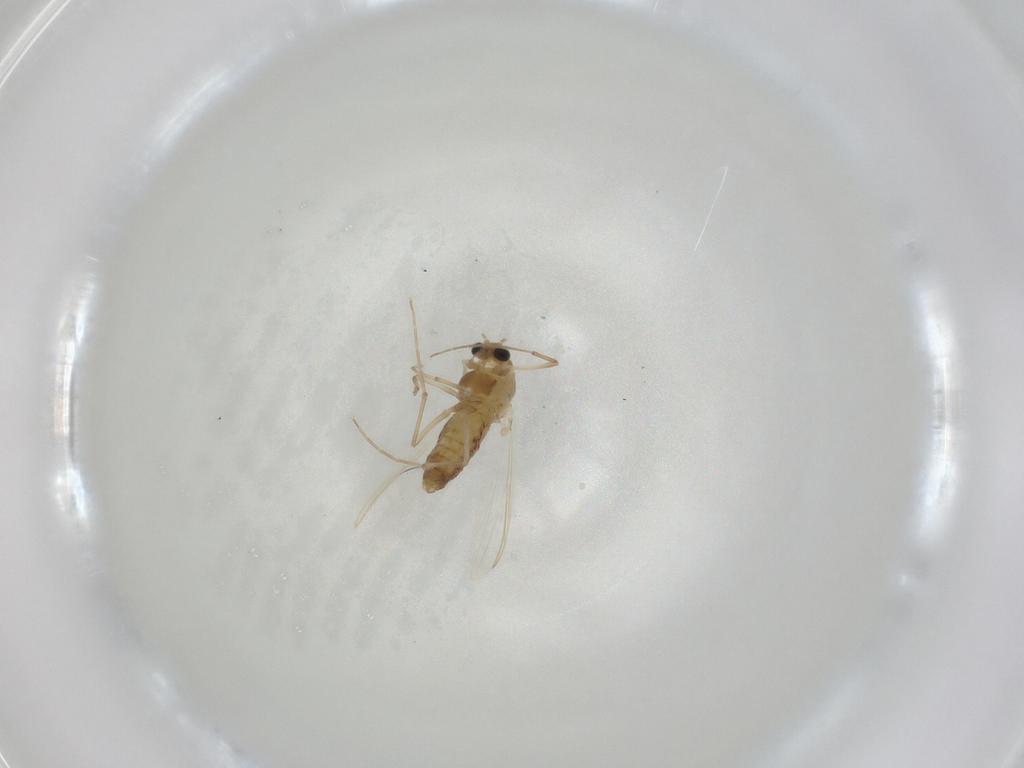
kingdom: Animalia
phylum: Arthropoda
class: Insecta
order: Diptera
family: Chironomidae
